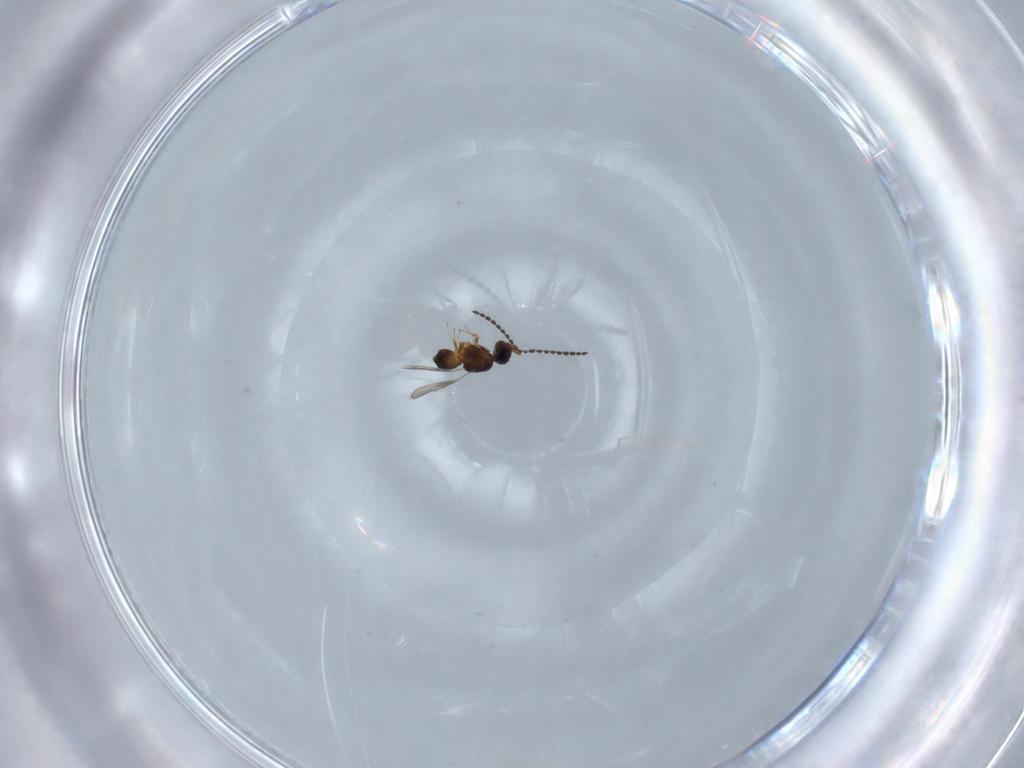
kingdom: Animalia
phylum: Arthropoda
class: Insecta
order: Hymenoptera
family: Ceraphronidae
